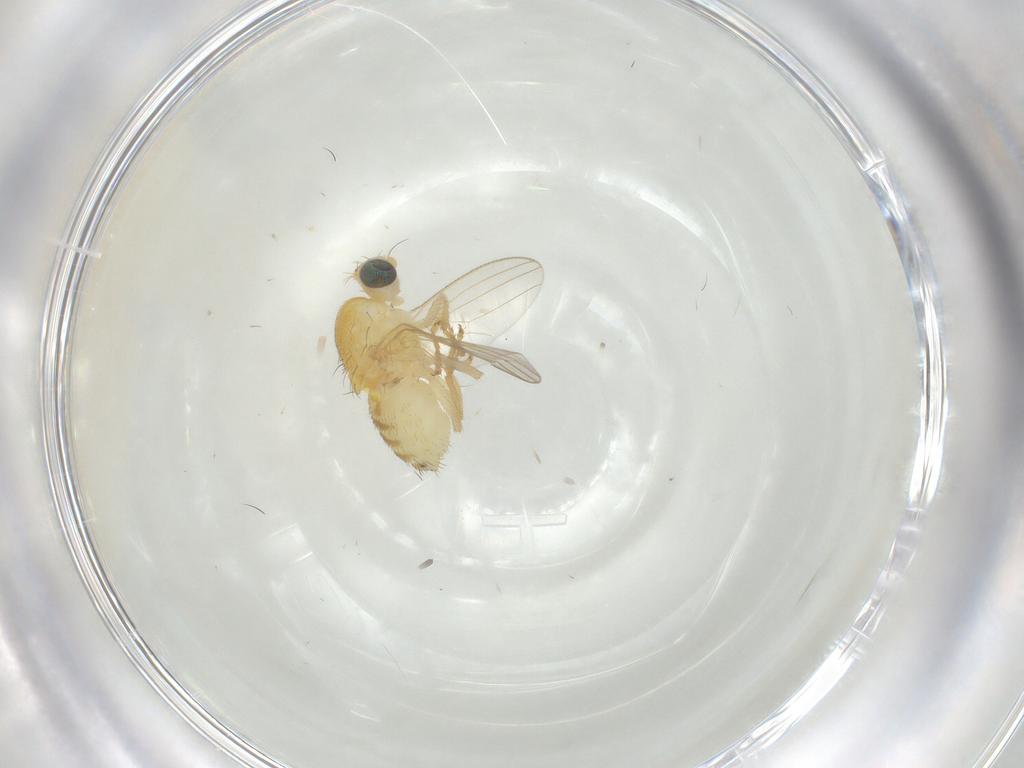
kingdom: Animalia
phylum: Arthropoda
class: Insecta
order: Diptera
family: Chyromyidae
